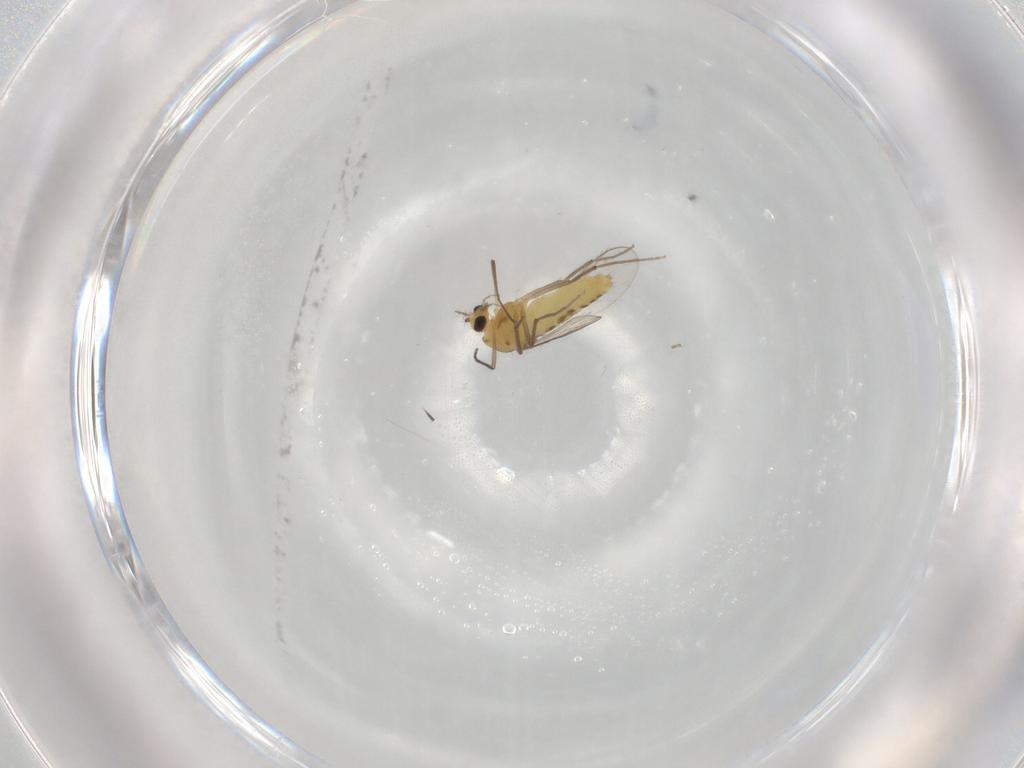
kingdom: Animalia
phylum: Arthropoda
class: Insecta
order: Diptera
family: Chironomidae
